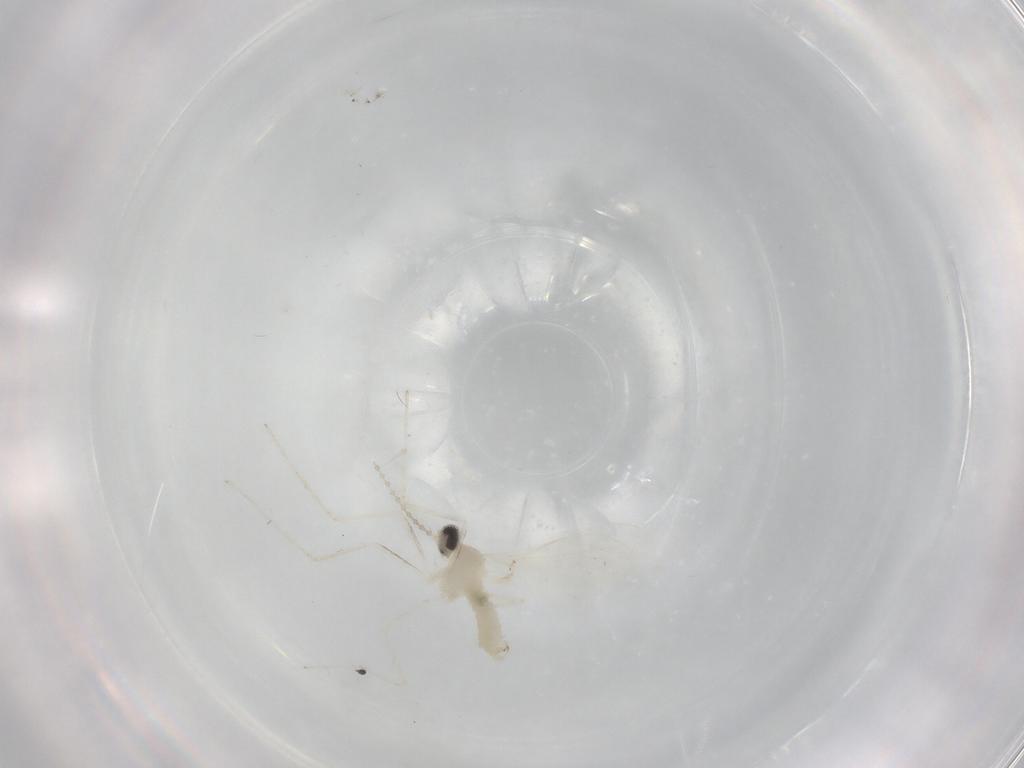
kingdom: Animalia
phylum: Arthropoda
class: Insecta
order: Diptera
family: Cecidomyiidae
